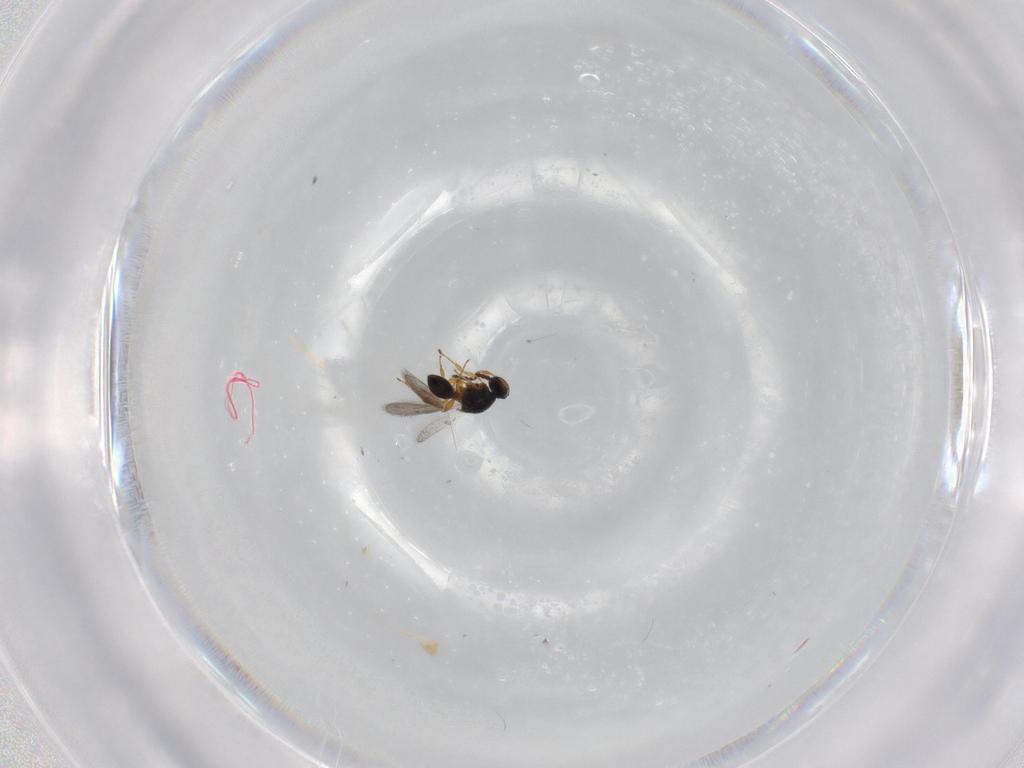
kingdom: Animalia
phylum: Arthropoda
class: Insecta
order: Hymenoptera
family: Platygastridae
